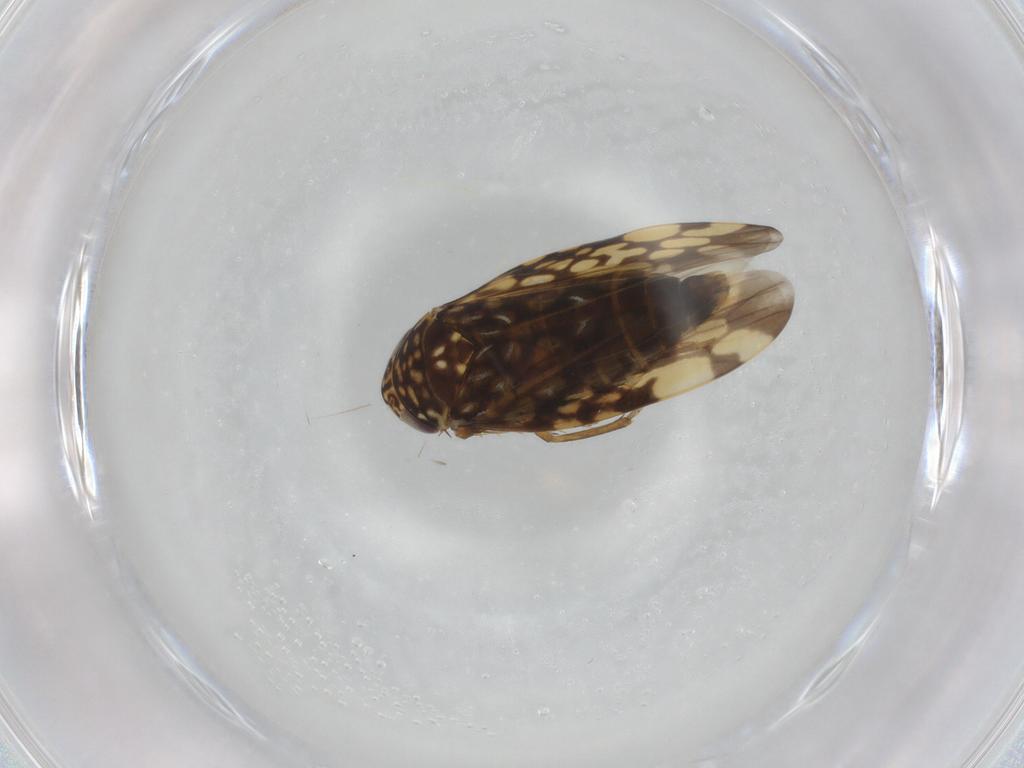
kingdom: Animalia
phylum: Arthropoda
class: Insecta
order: Hemiptera
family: Cicadellidae
